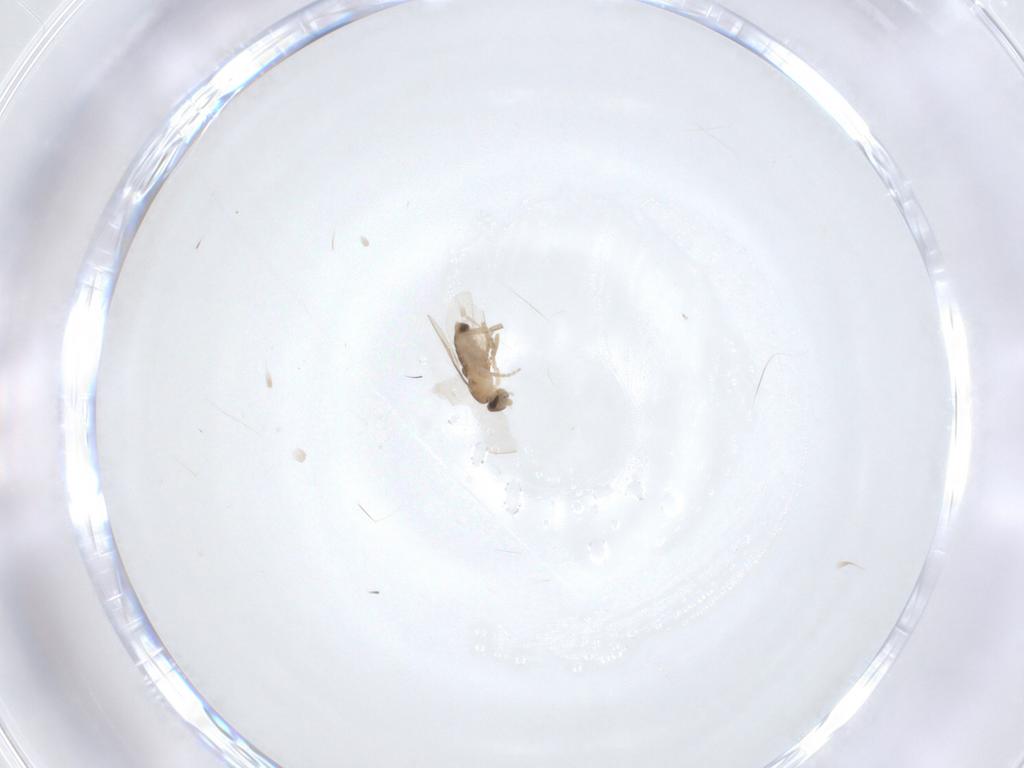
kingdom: Animalia
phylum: Arthropoda
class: Insecta
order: Diptera
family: Phoridae
